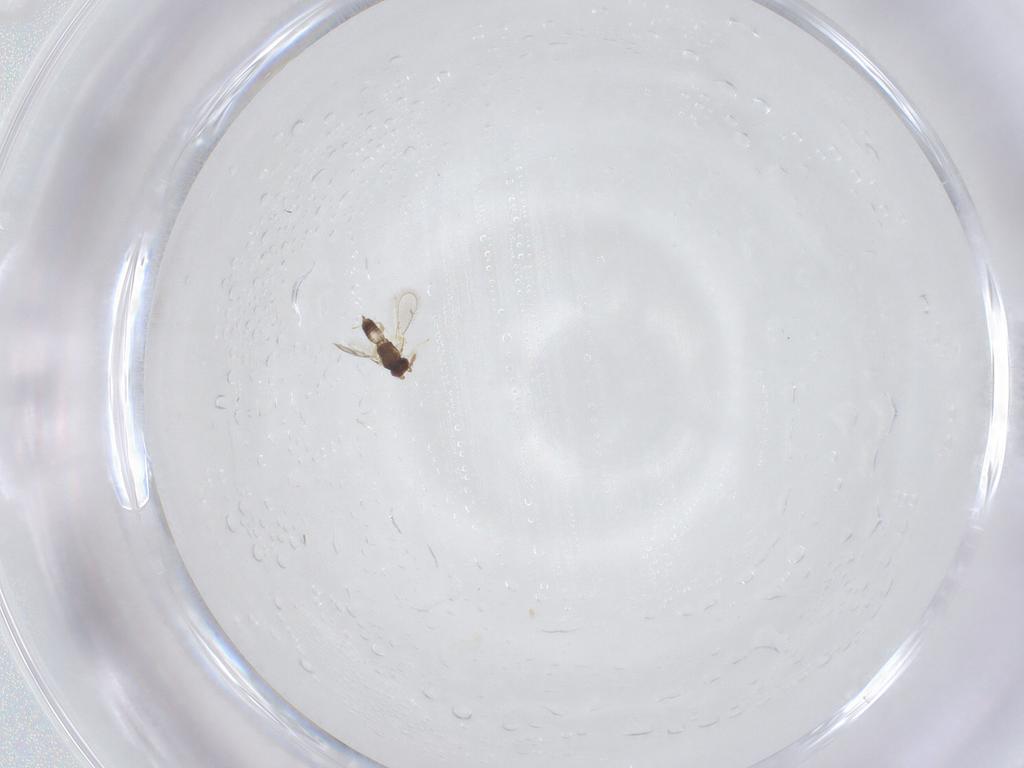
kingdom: Animalia
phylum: Arthropoda
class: Insecta
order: Hymenoptera
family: Eulophidae
